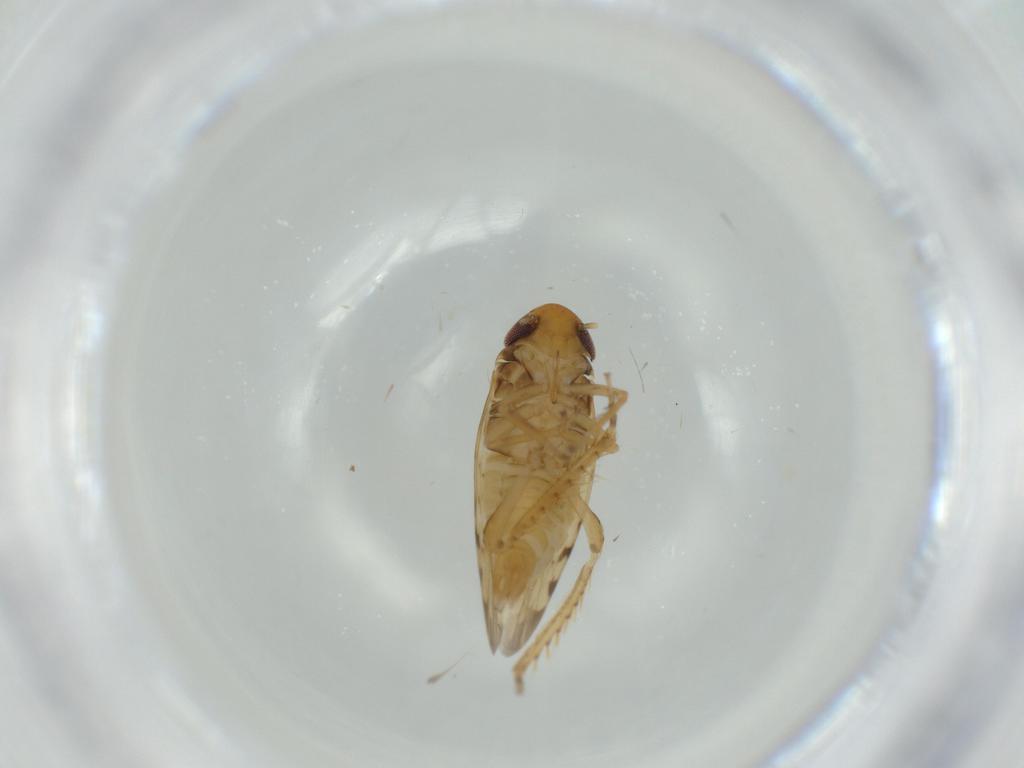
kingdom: Animalia
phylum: Arthropoda
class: Insecta
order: Hemiptera
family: Cicadellidae
